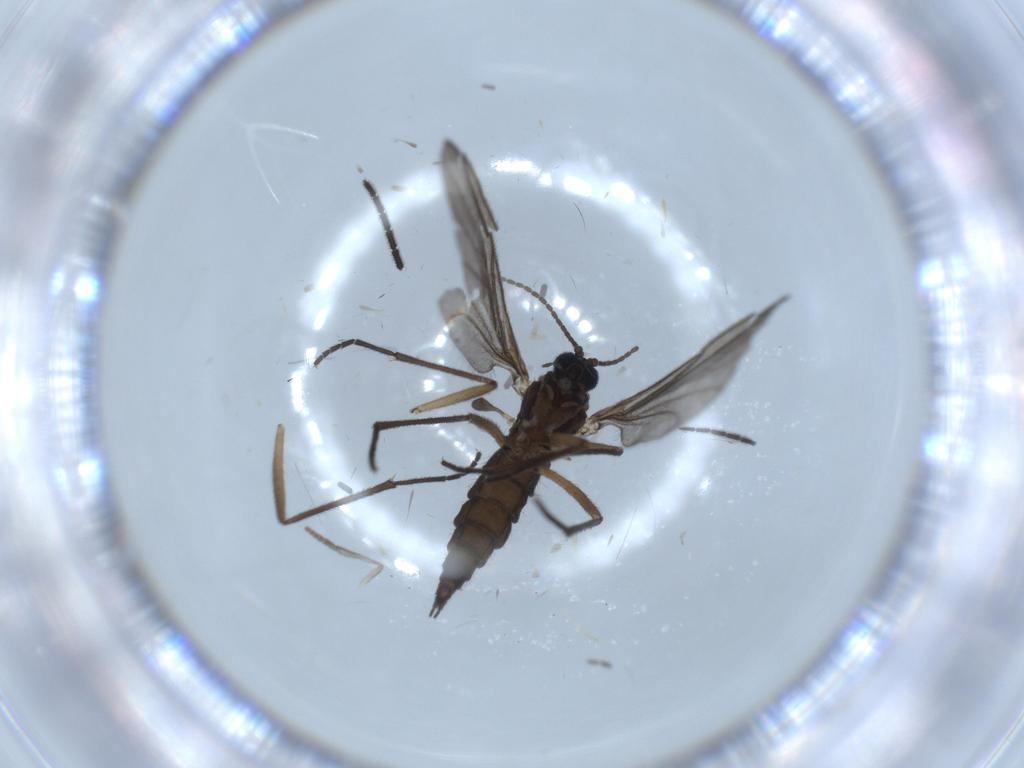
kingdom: Animalia
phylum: Arthropoda
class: Insecta
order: Diptera
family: Sciaridae
